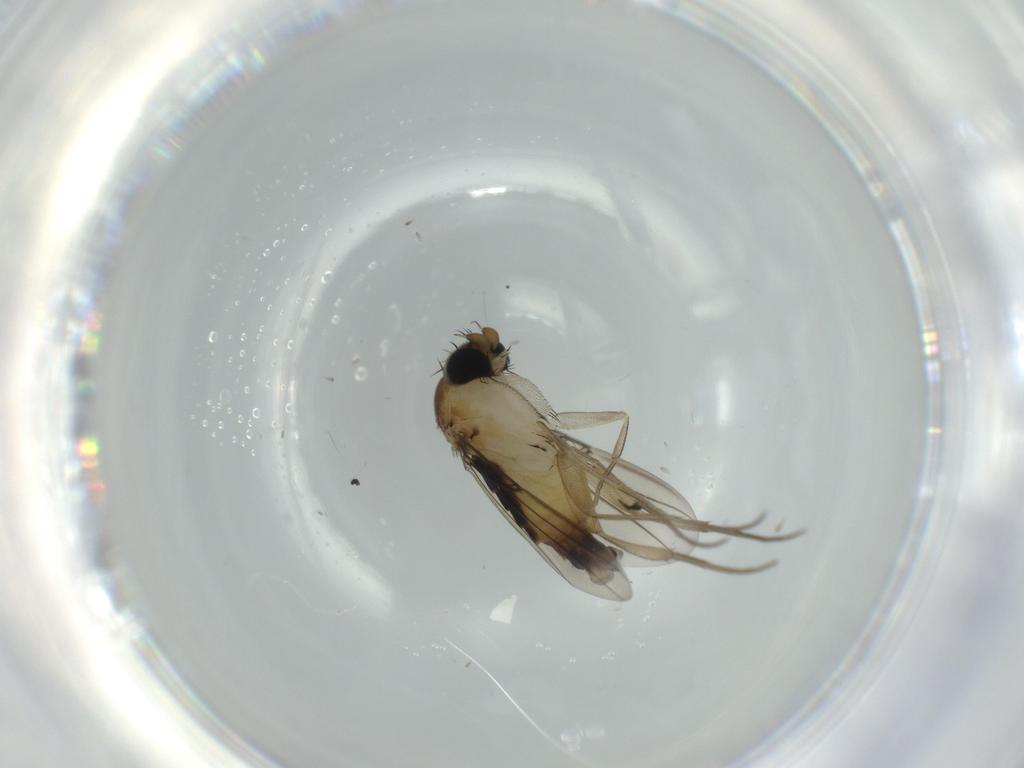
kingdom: Animalia
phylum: Arthropoda
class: Insecta
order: Diptera
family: Phoridae
